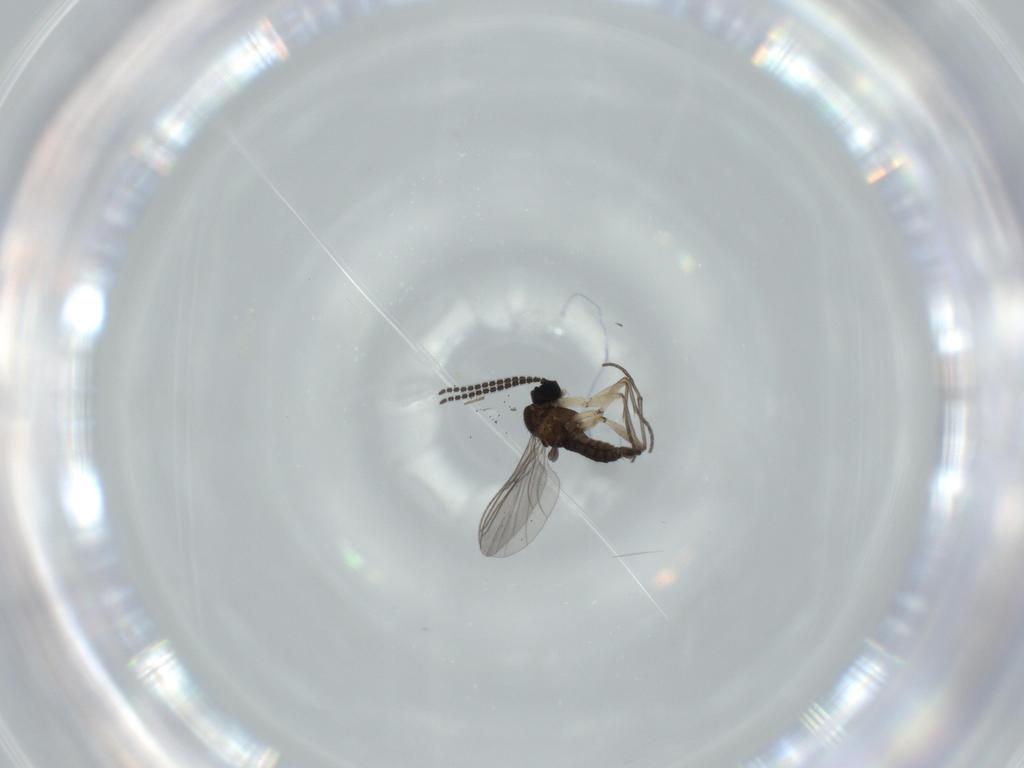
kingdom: Animalia
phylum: Arthropoda
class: Insecta
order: Diptera
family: Sciaridae
